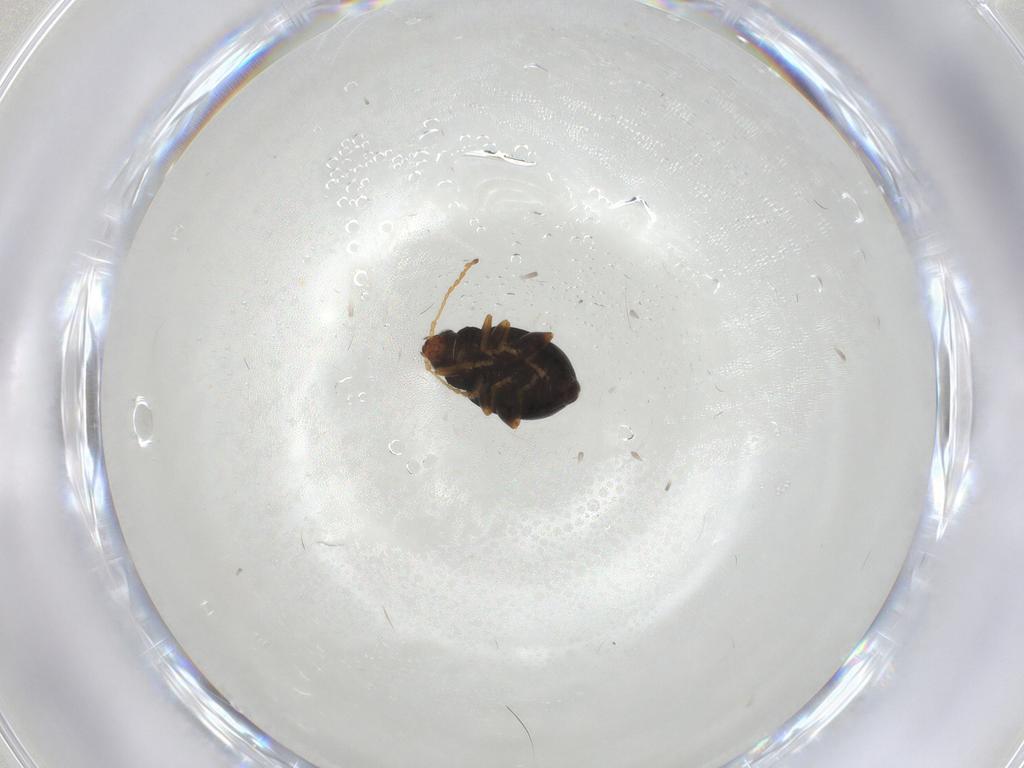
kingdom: Animalia
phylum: Arthropoda
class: Insecta
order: Coleoptera
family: Chrysomelidae
